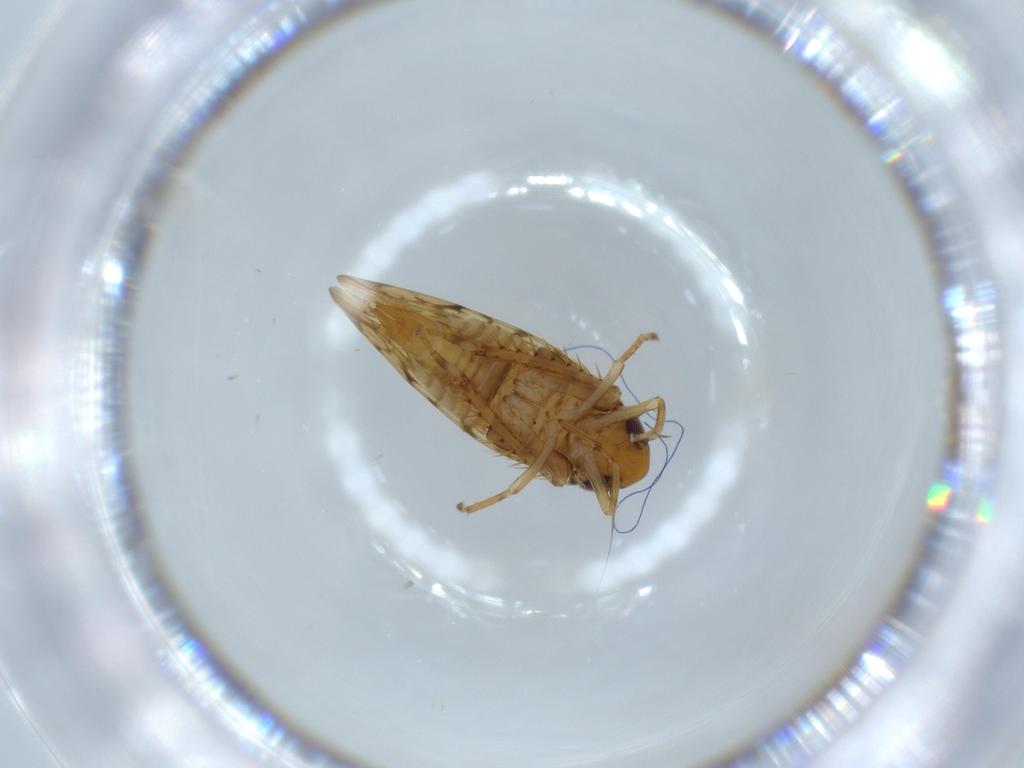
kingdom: Animalia
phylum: Arthropoda
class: Insecta
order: Hemiptera
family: Cicadellidae
